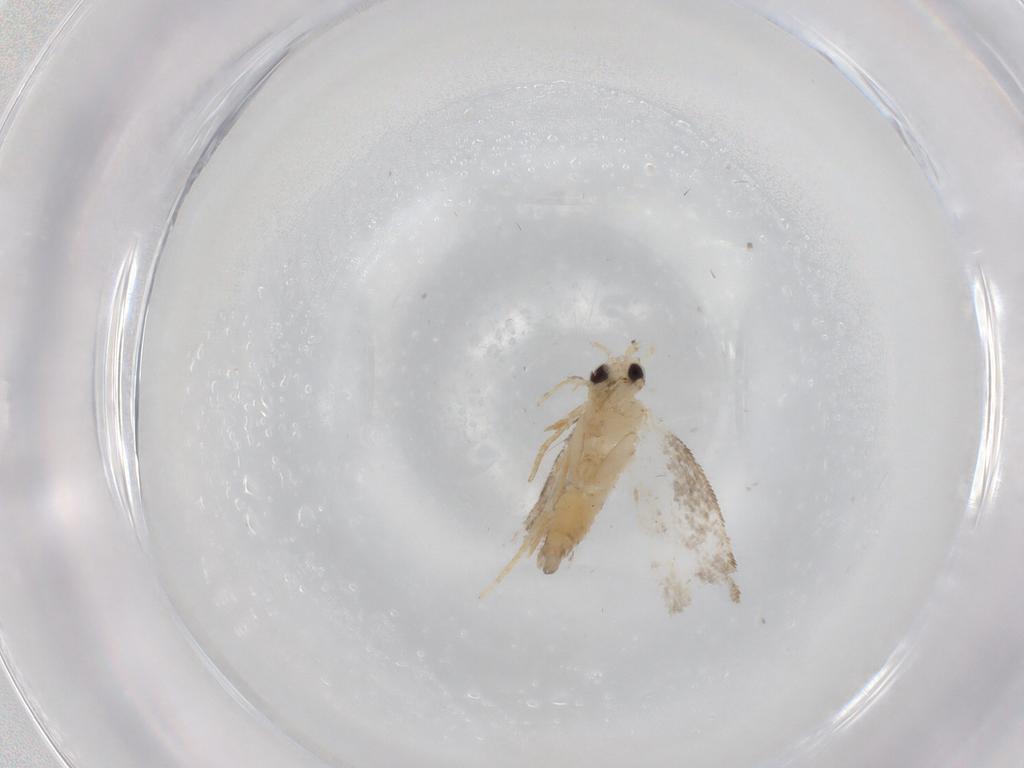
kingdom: Animalia
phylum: Arthropoda
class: Insecta
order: Lepidoptera
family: Psychidae
